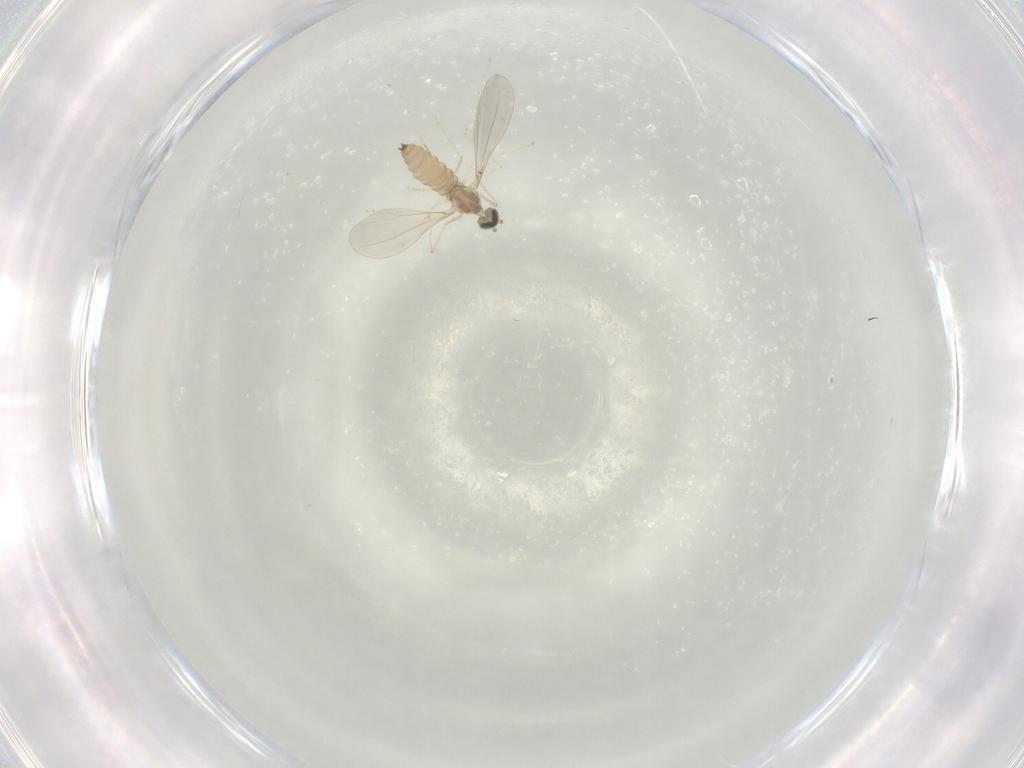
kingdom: Animalia
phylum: Arthropoda
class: Insecta
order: Diptera
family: Cecidomyiidae
